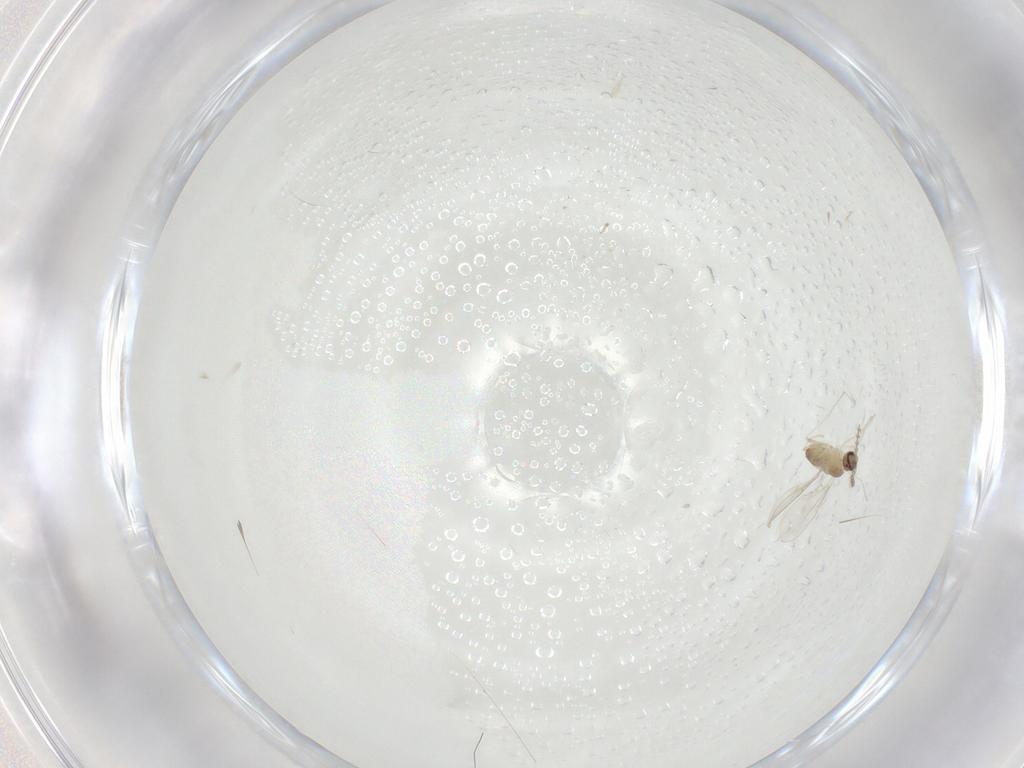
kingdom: Animalia
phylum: Arthropoda
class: Insecta
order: Diptera
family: Cecidomyiidae
